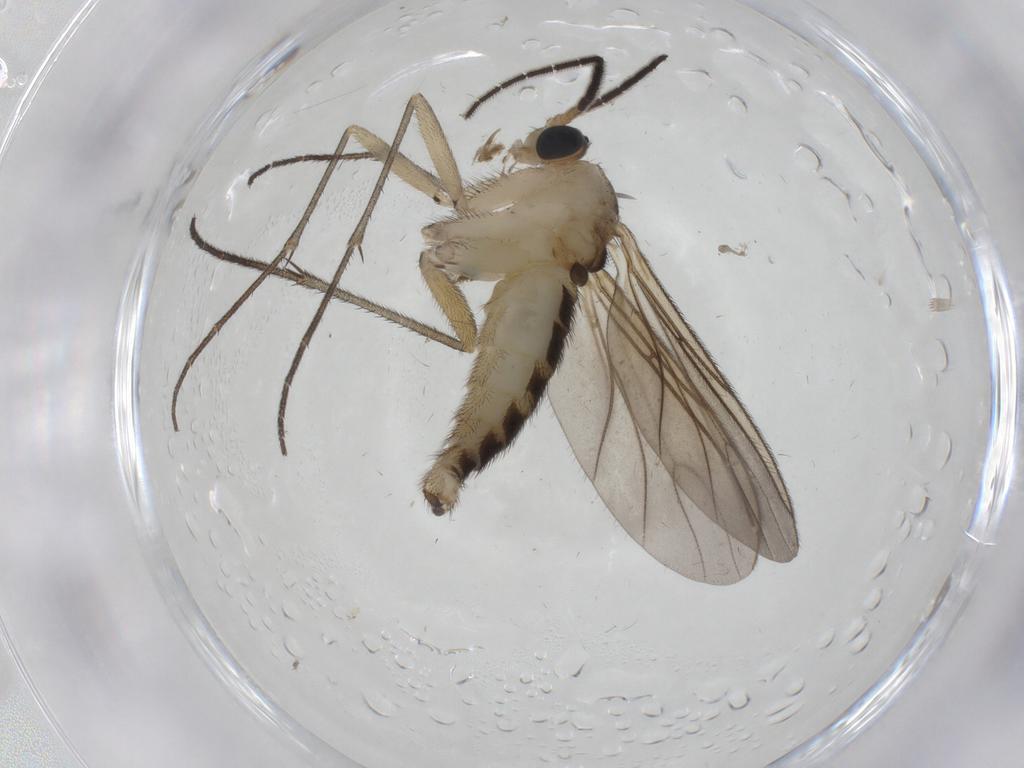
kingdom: Animalia
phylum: Arthropoda
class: Insecta
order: Diptera
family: Sciaridae
